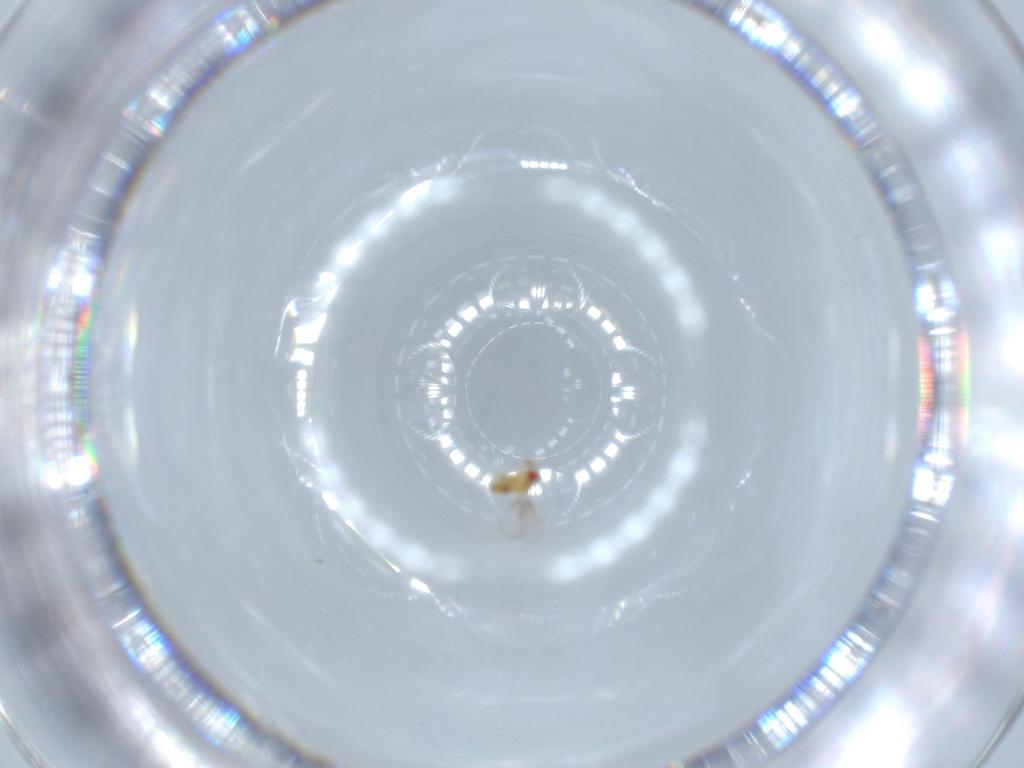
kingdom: Animalia
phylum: Arthropoda
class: Insecta
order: Hymenoptera
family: Trichogrammatidae
